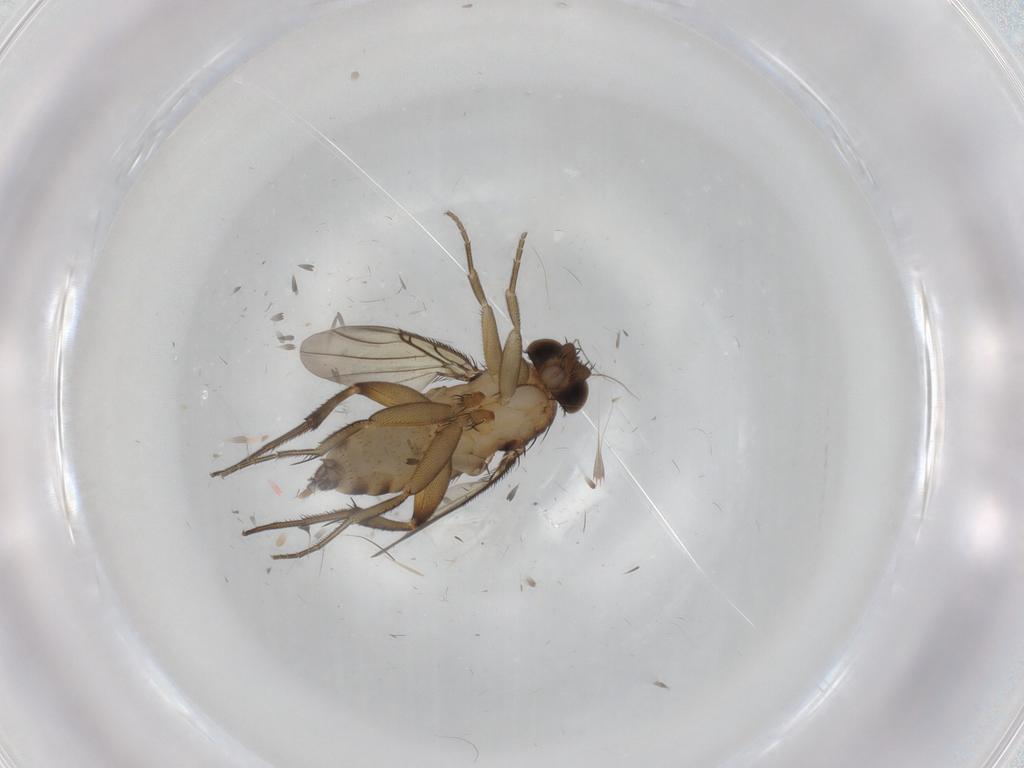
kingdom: Animalia
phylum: Arthropoda
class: Insecta
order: Diptera
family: Phoridae
